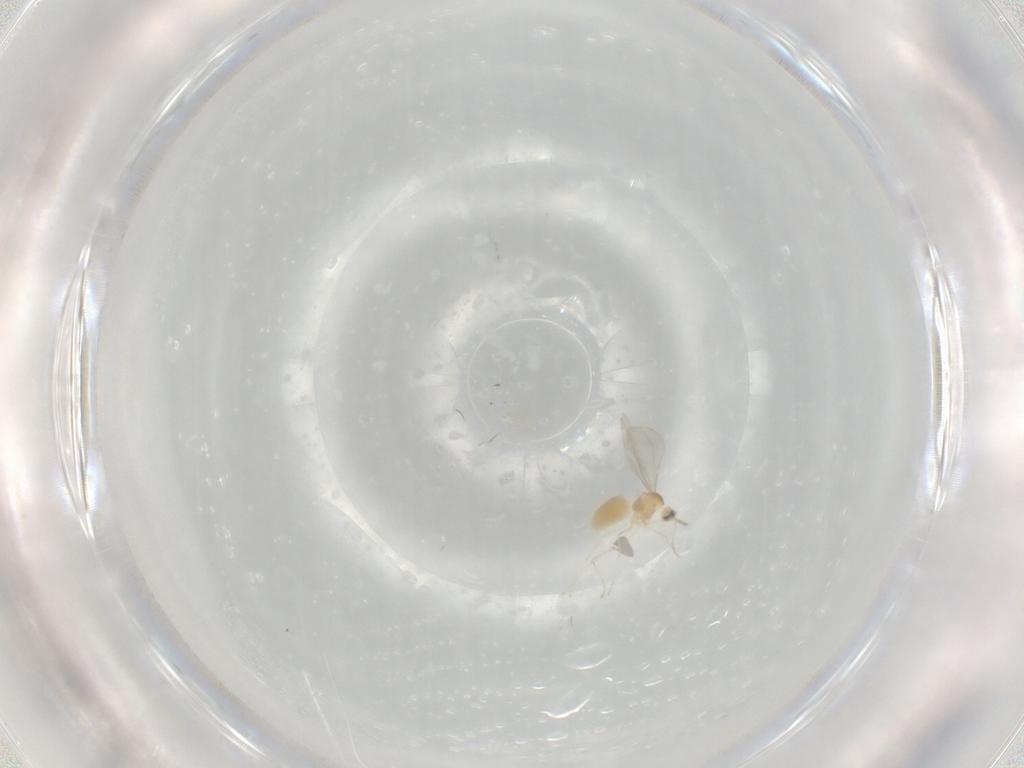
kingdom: Animalia
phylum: Arthropoda
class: Insecta
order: Diptera
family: Cecidomyiidae
